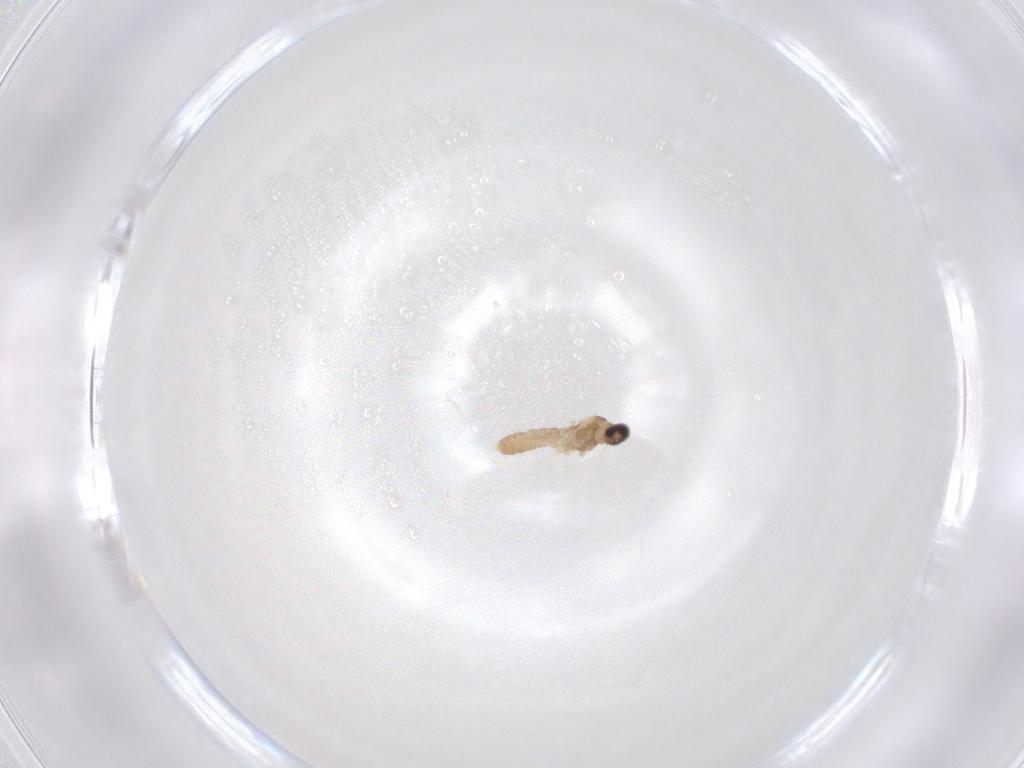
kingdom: Animalia
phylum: Arthropoda
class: Insecta
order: Diptera
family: Cecidomyiidae
